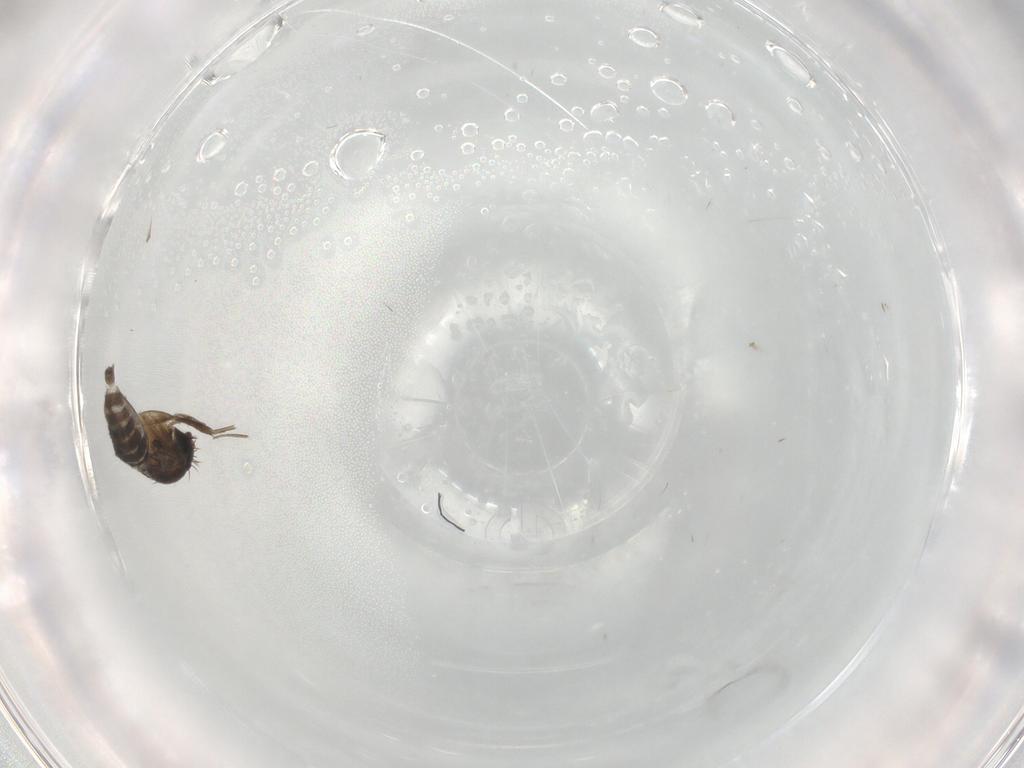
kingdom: Animalia
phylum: Arthropoda
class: Insecta
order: Diptera
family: Phoridae
